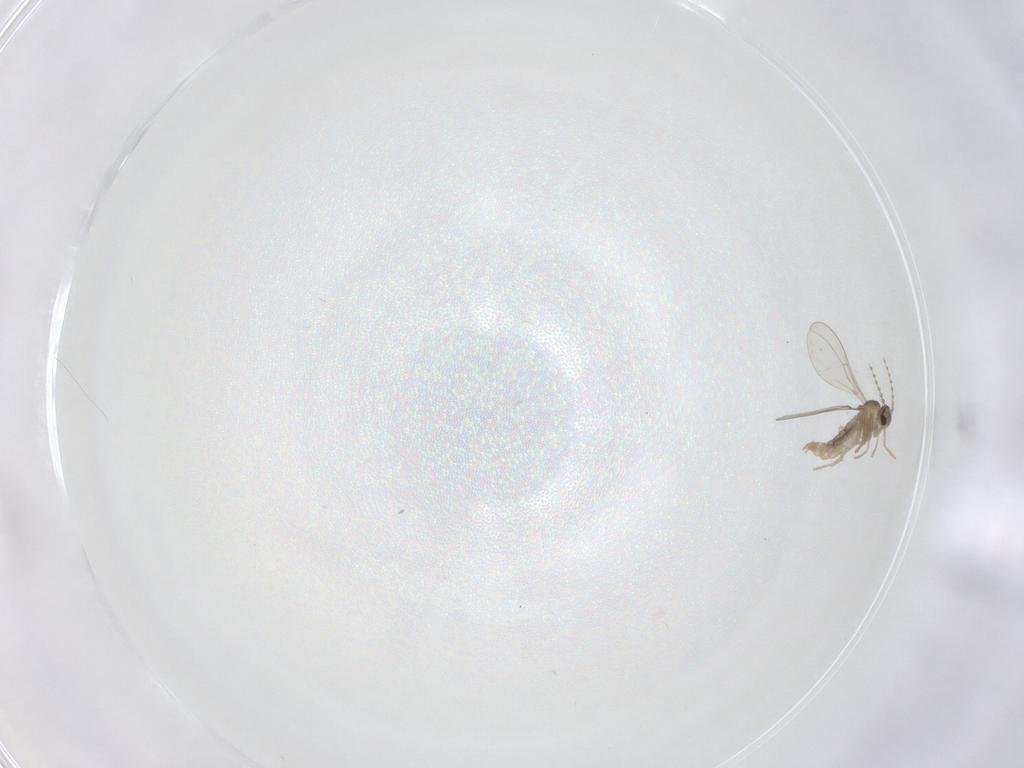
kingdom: Animalia
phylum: Arthropoda
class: Insecta
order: Diptera
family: Cecidomyiidae
